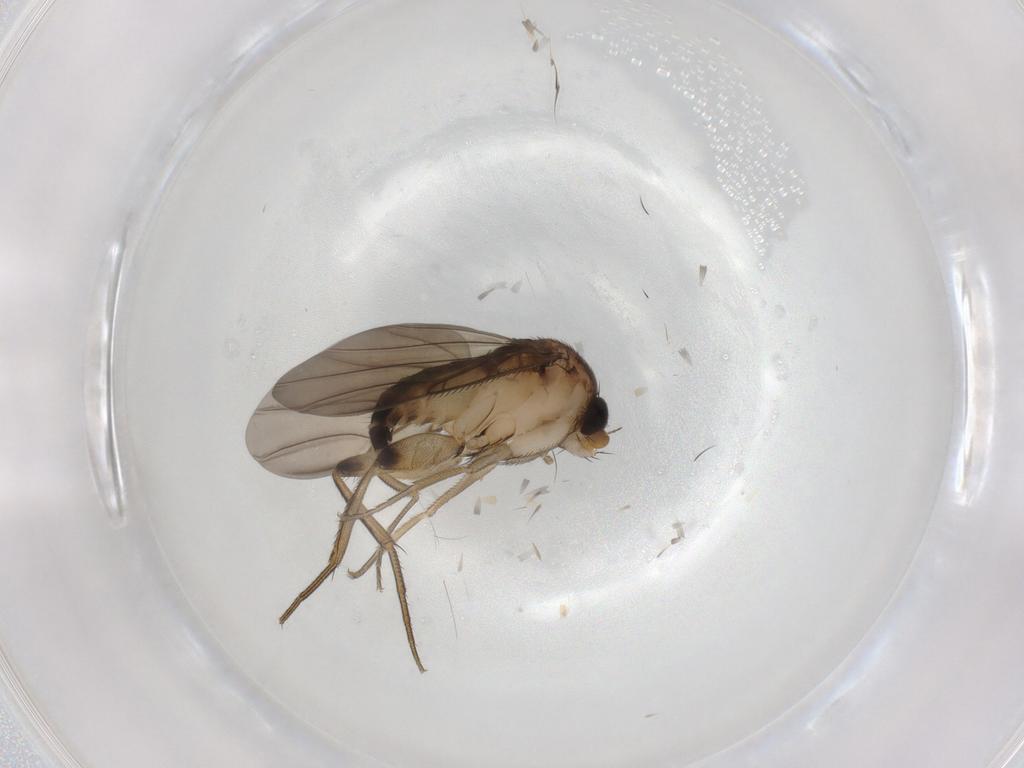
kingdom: Animalia
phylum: Arthropoda
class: Insecta
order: Diptera
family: Phoridae
